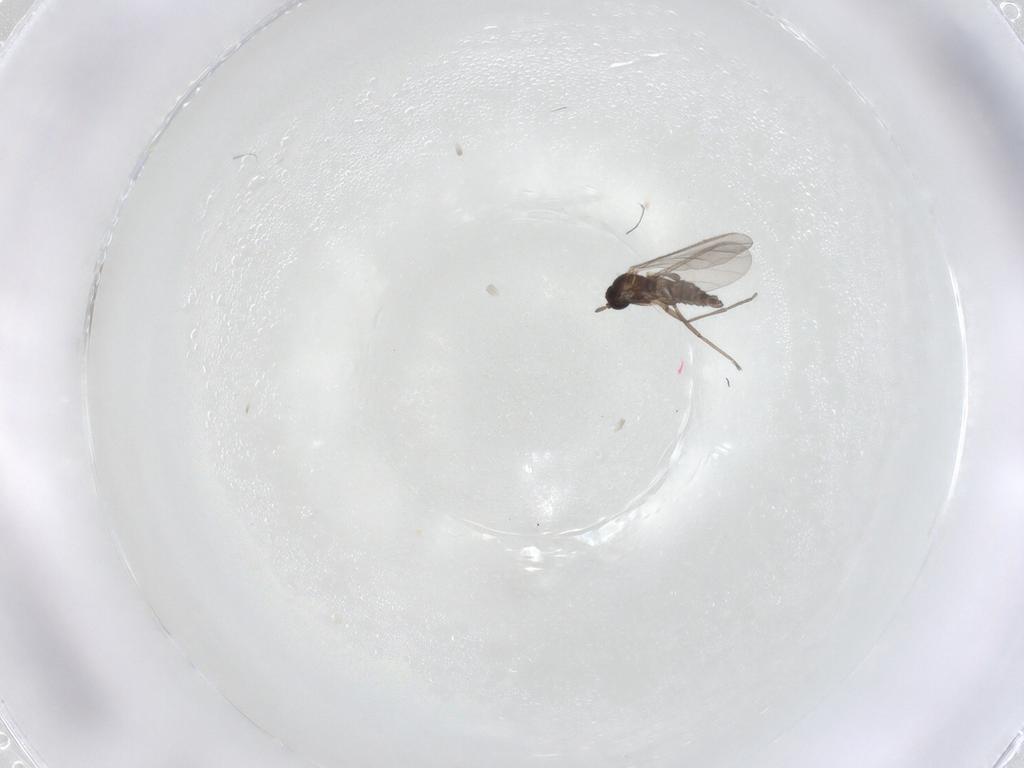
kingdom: Animalia
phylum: Arthropoda
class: Insecta
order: Diptera
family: Sciaridae
